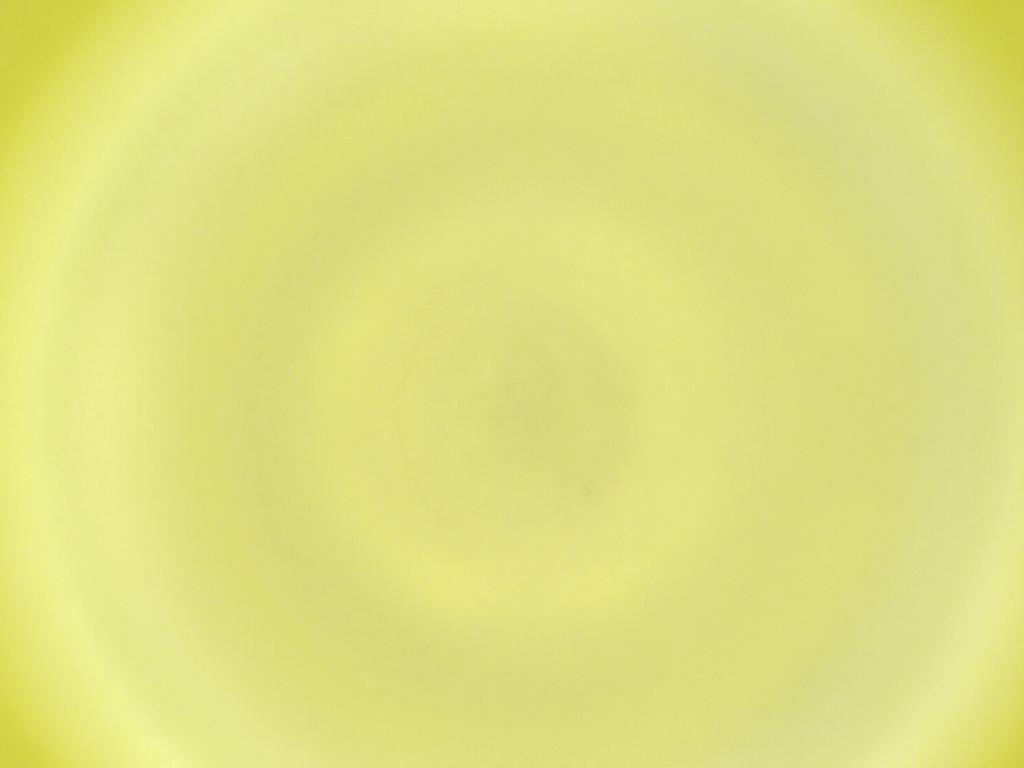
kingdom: Animalia
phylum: Arthropoda
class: Insecta
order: Diptera
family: Cecidomyiidae
